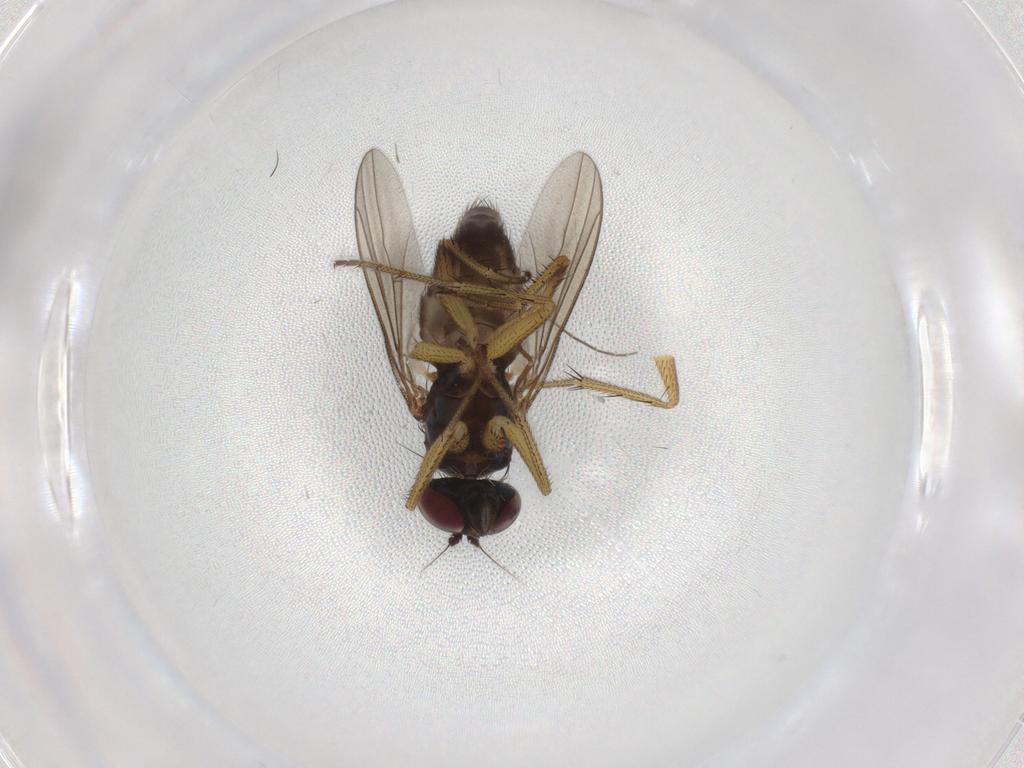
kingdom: Animalia
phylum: Arthropoda
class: Insecta
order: Diptera
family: Dolichopodidae
